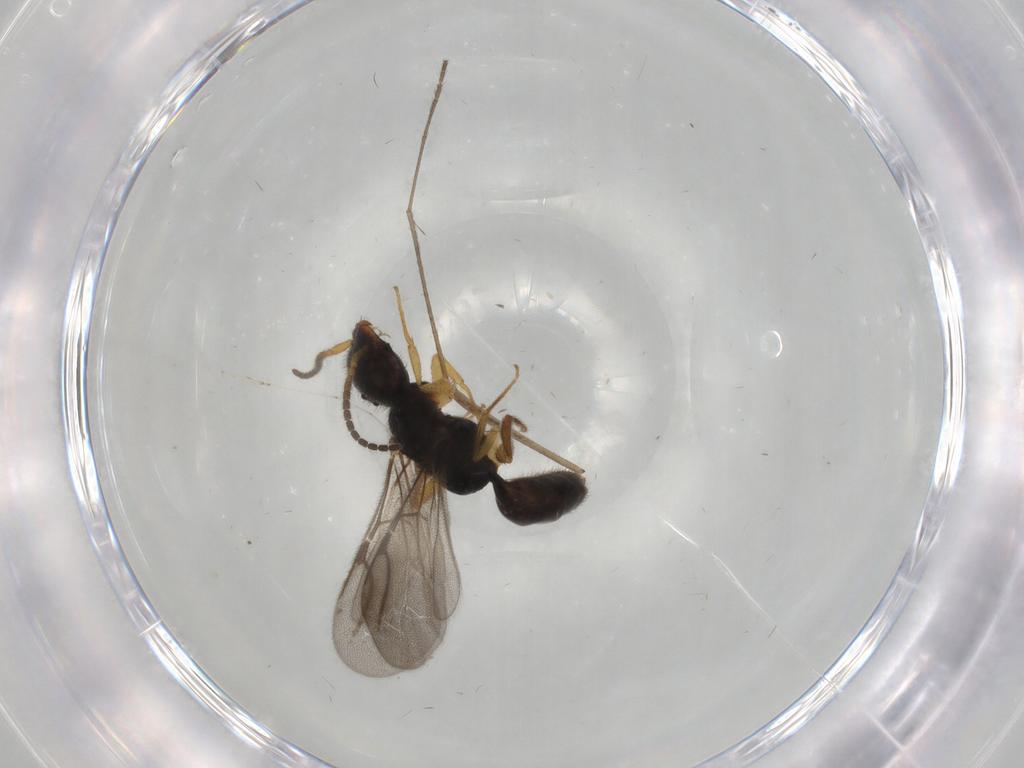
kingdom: Animalia
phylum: Arthropoda
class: Insecta
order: Hymenoptera
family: Bethylidae
